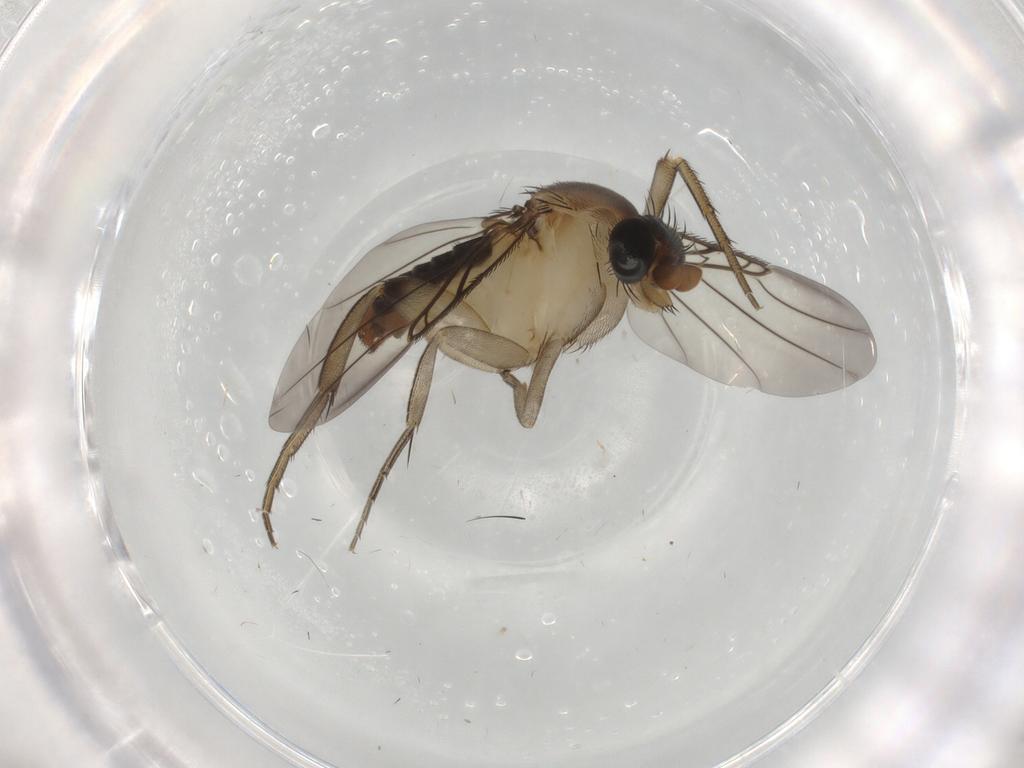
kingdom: Animalia
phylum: Arthropoda
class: Insecta
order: Diptera
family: Phoridae
